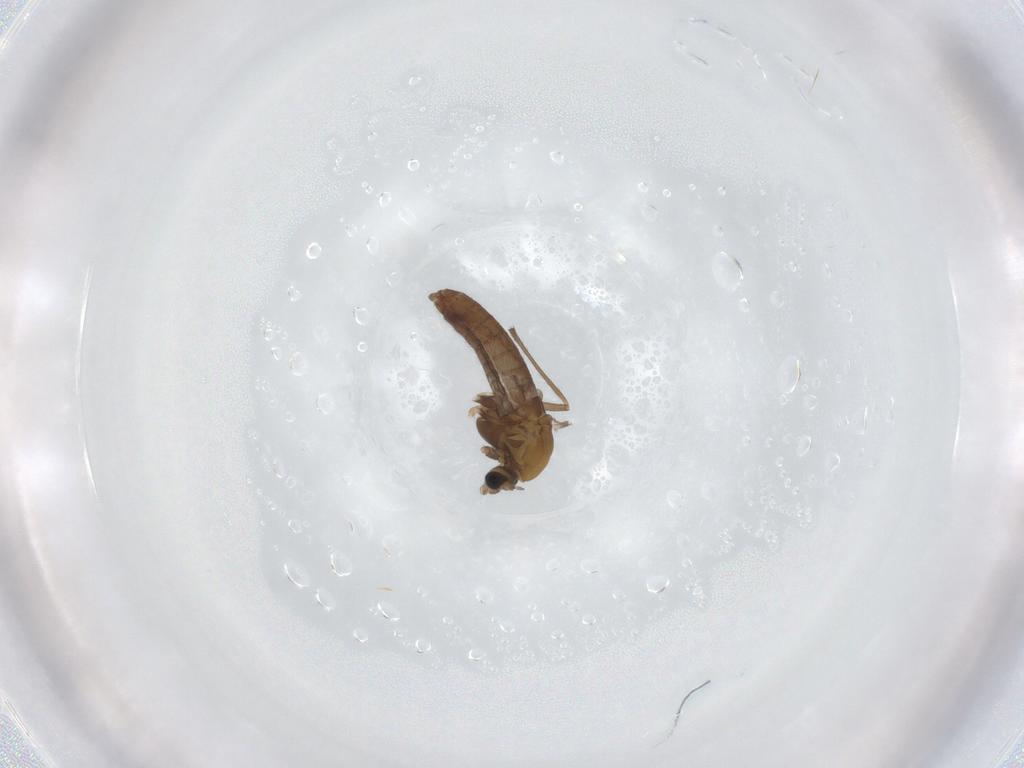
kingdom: Animalia
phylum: Arthropoda
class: Insecta
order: Diptera
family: Chironomidae
